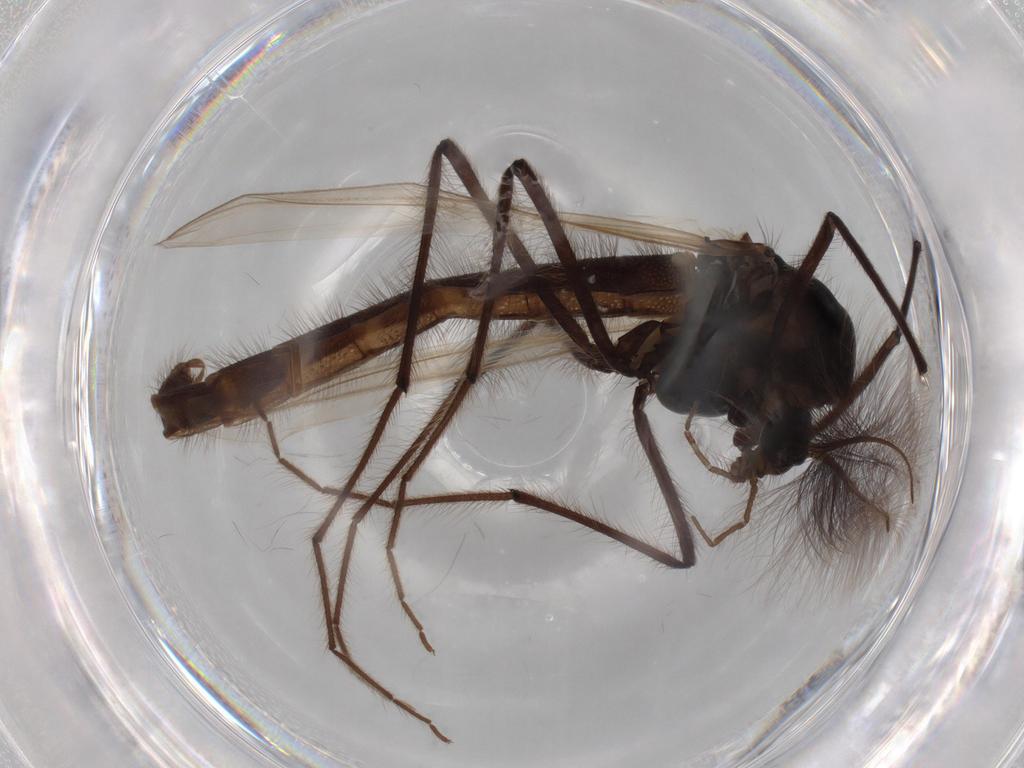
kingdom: Animalia
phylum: Arthropoda
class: Insecta
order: Diptera
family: Chironomidae
